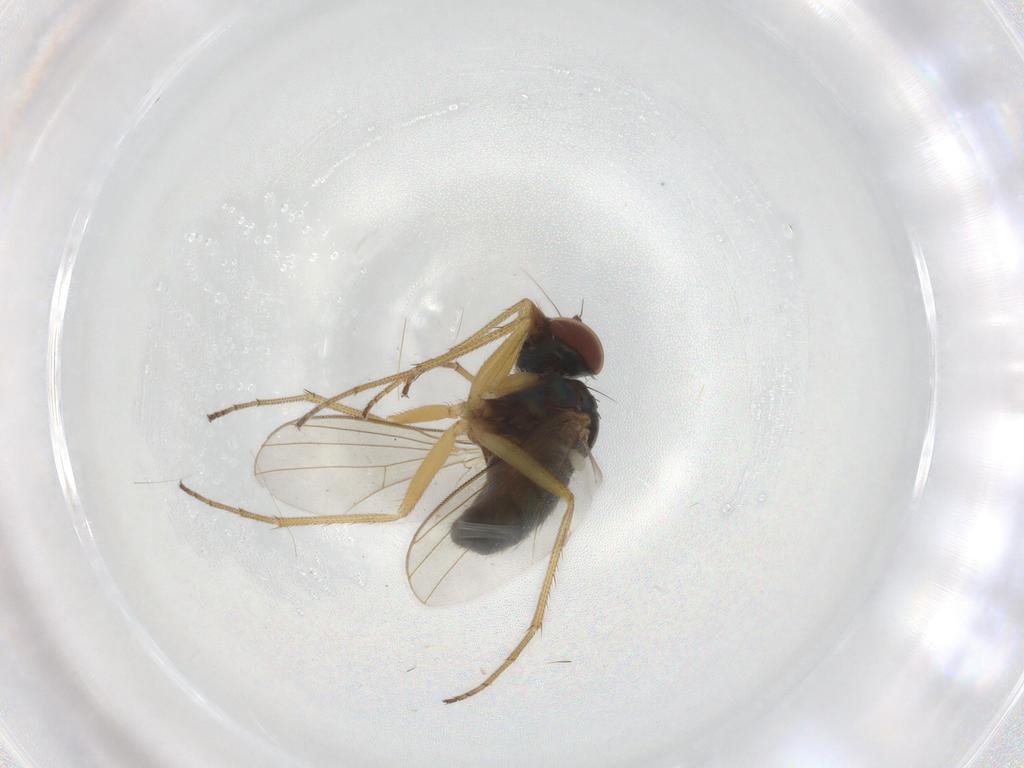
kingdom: Animalia
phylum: Arthropoda
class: Insecta
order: Diptera
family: Dolichopodidae
